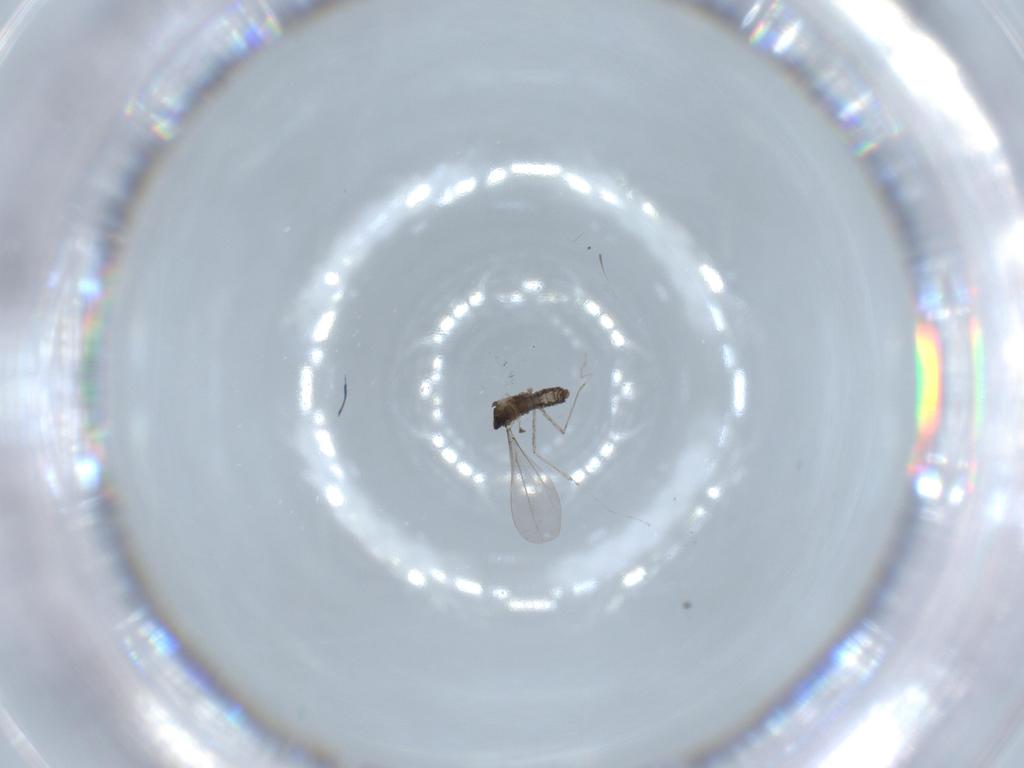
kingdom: Animalia
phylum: Arthropoda
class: Insecta
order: Diptera
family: Cecidomyiidae
